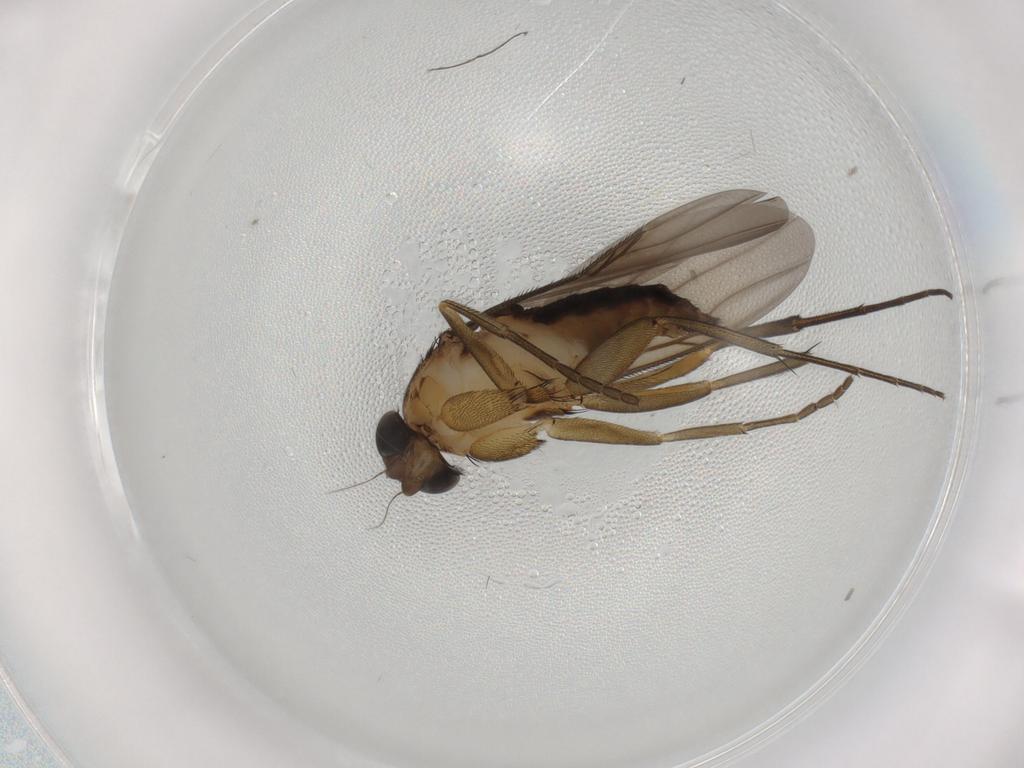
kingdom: Animalia
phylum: Arthropoda
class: Insecta
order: Diptera
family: Phoridae
